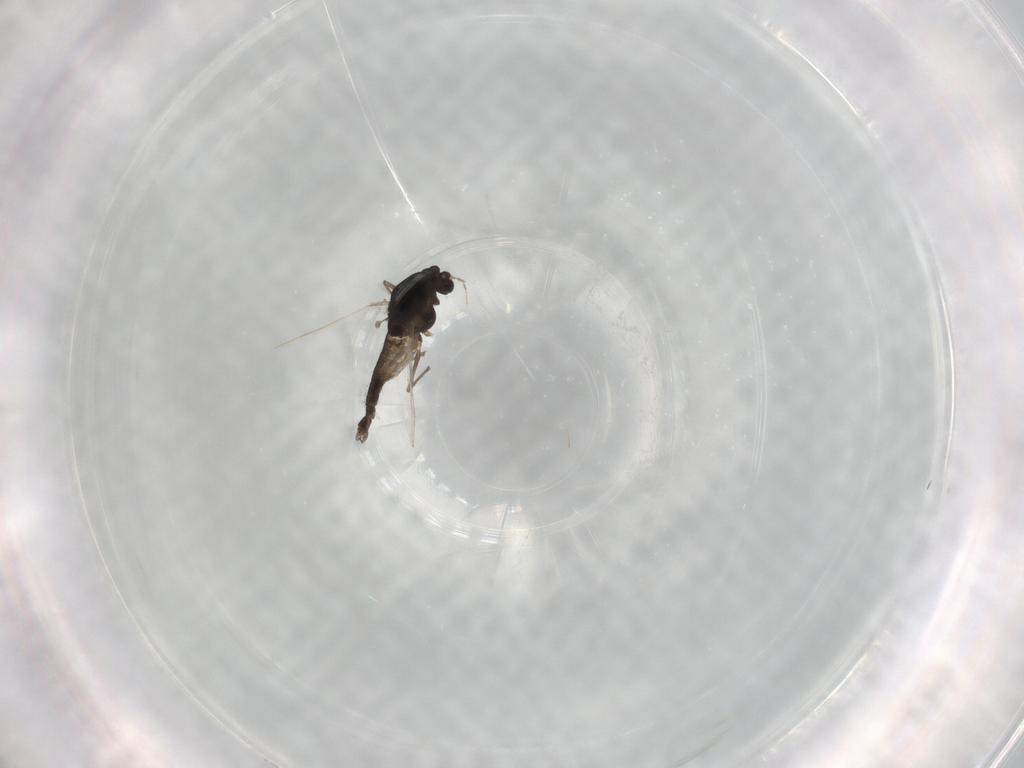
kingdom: Animalia
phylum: Arthropoda
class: Insecta
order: Diptera
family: Chironomidae
